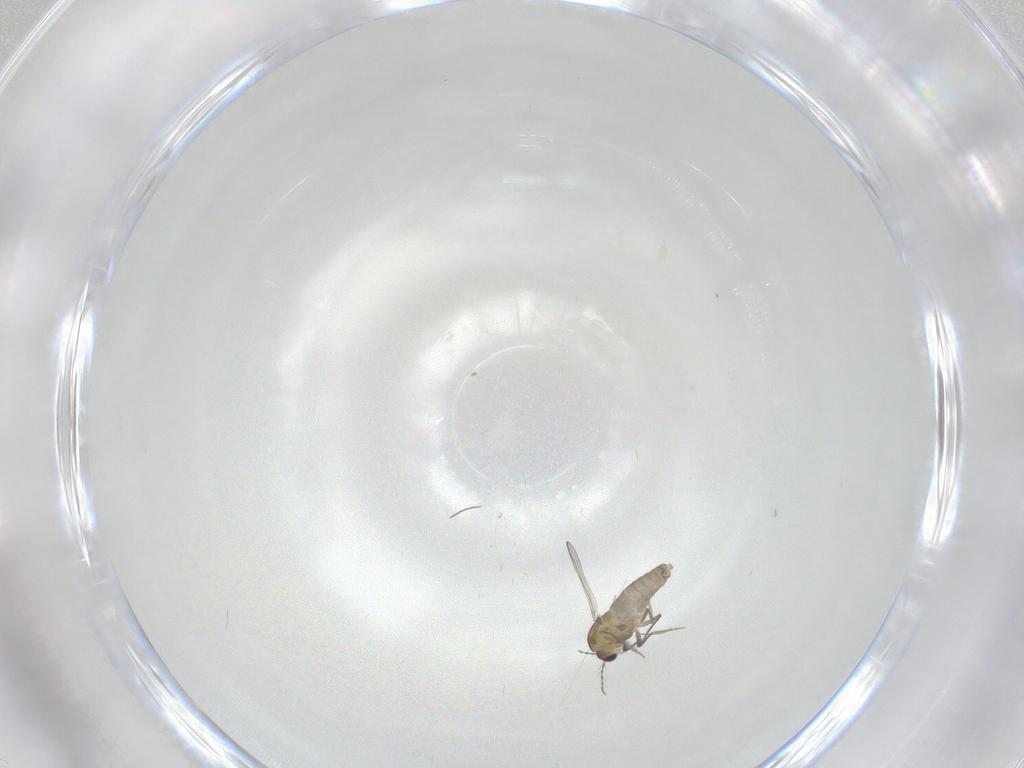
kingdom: Animalia
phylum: Arthropoda
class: Insecta
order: Diptera
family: Chironomidae
